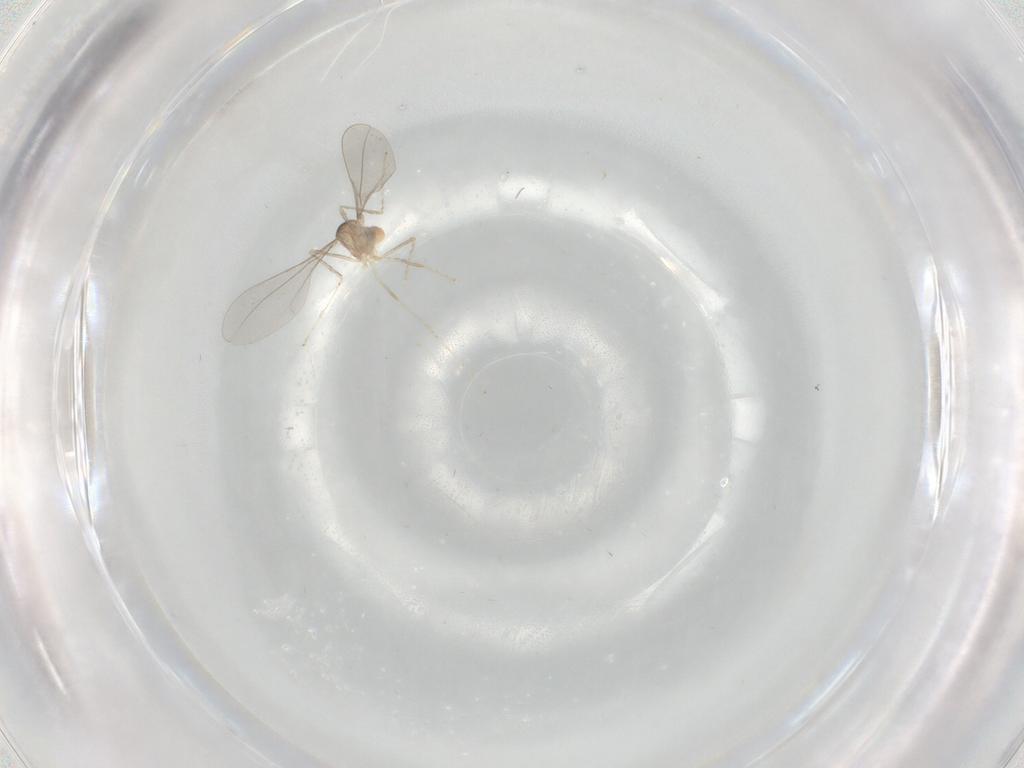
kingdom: Animalia
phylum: Arthropoda
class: Insecta
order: Diptera
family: Cecidomyiidae
